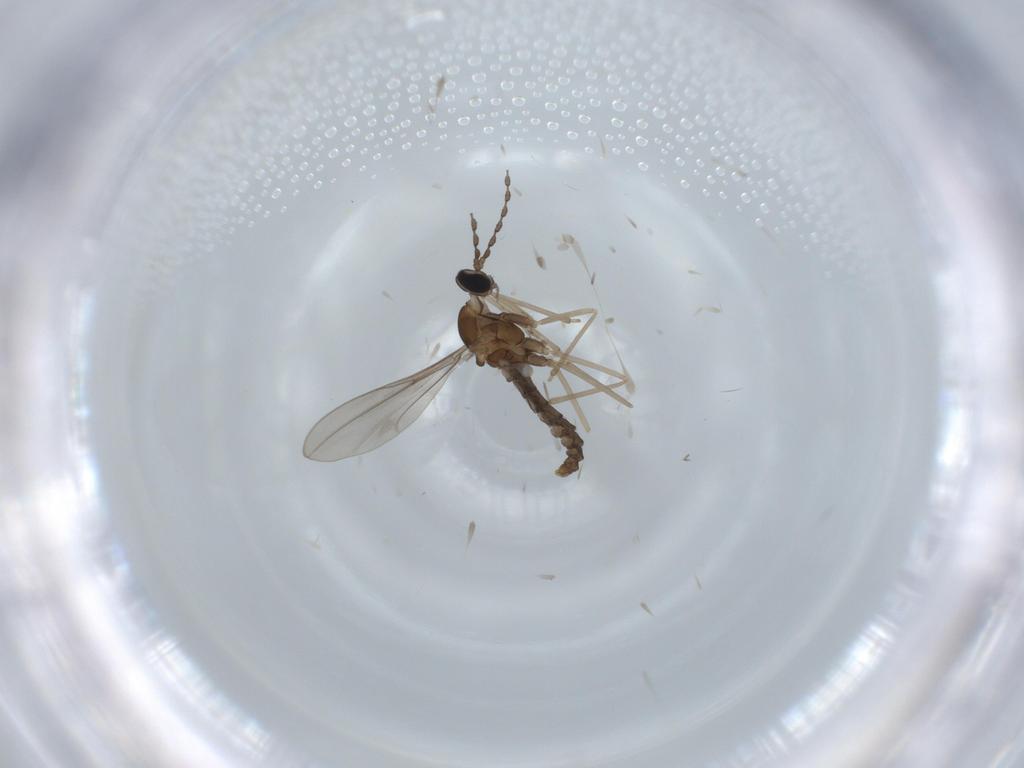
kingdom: Animalia
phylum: Arthropoda
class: Insecta
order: Diptera
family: Cecidomyiidae
